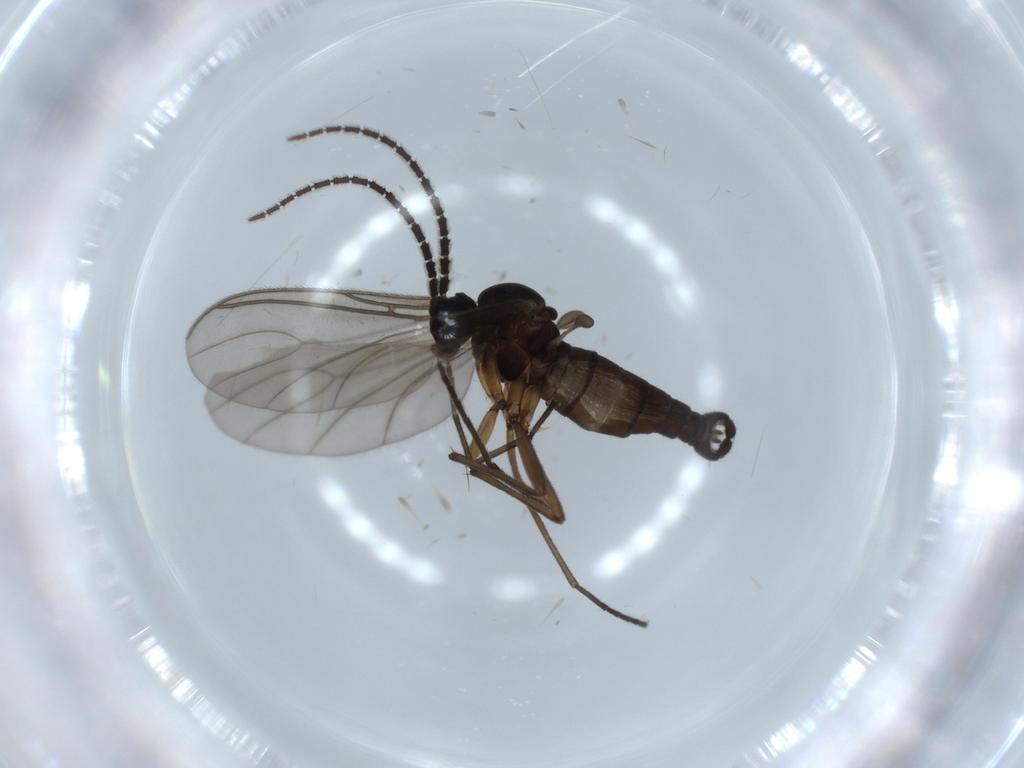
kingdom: Animalia
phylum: Arthropoda
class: Insecta
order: Diptera
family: Sciaridae
